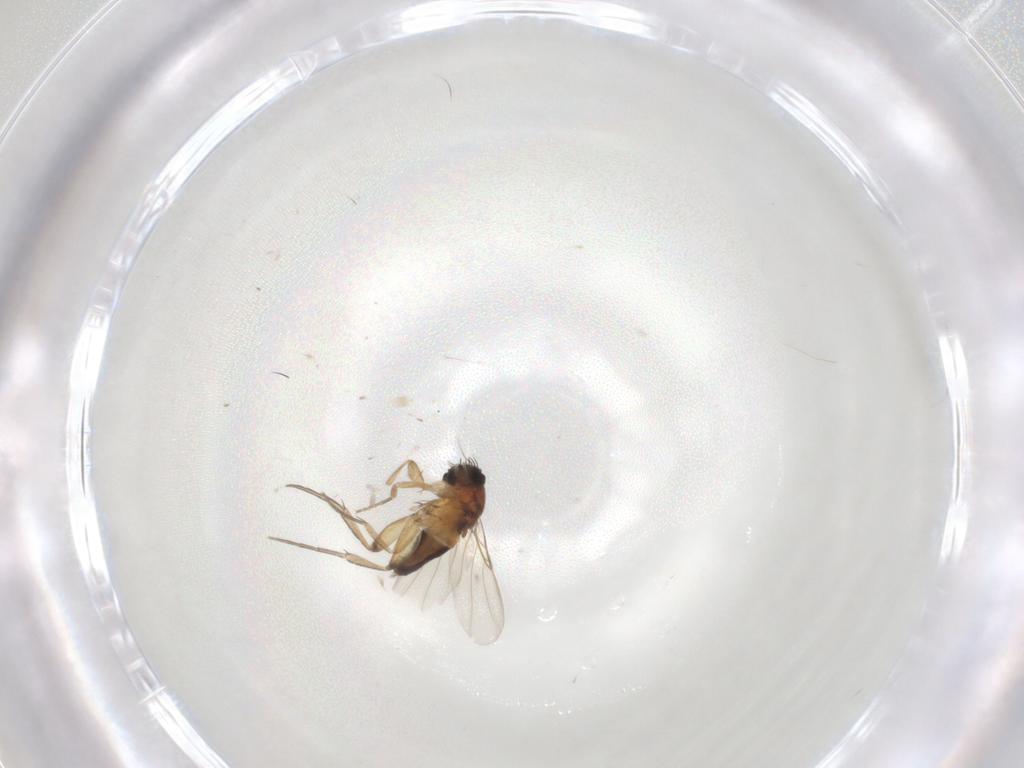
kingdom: Animalia
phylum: Arthropoda
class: Insecta
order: Diptera
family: Phoridae
